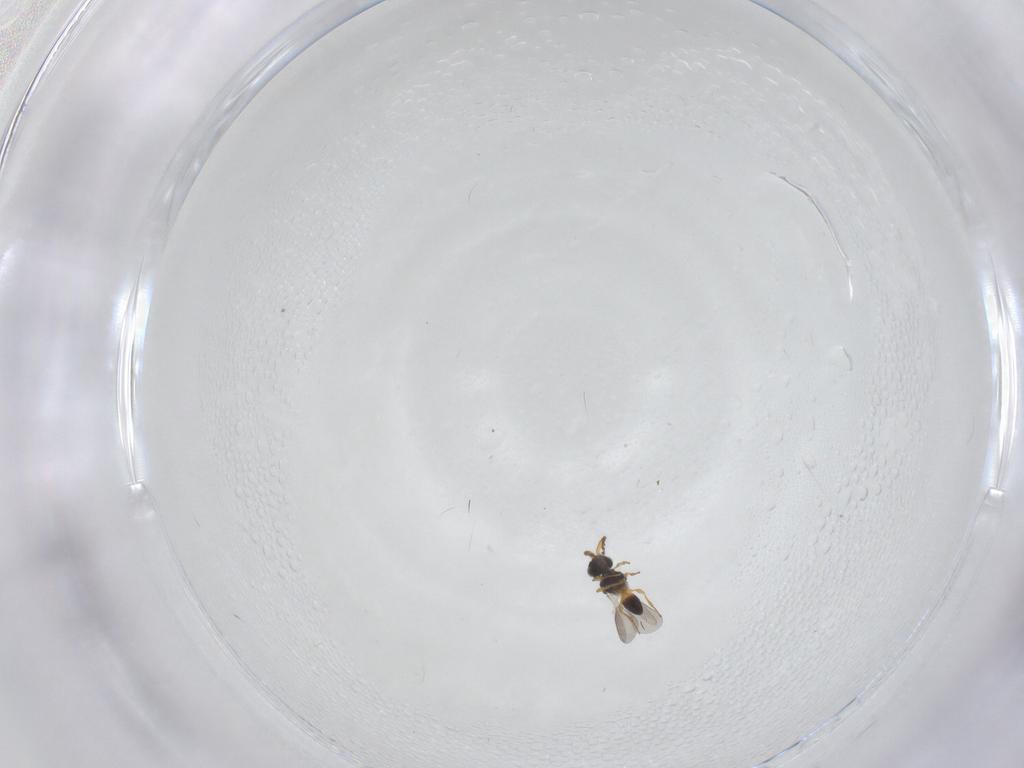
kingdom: Animalia
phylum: Arthropoda
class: Insecta
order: Hymenoptera
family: Platygastridae
